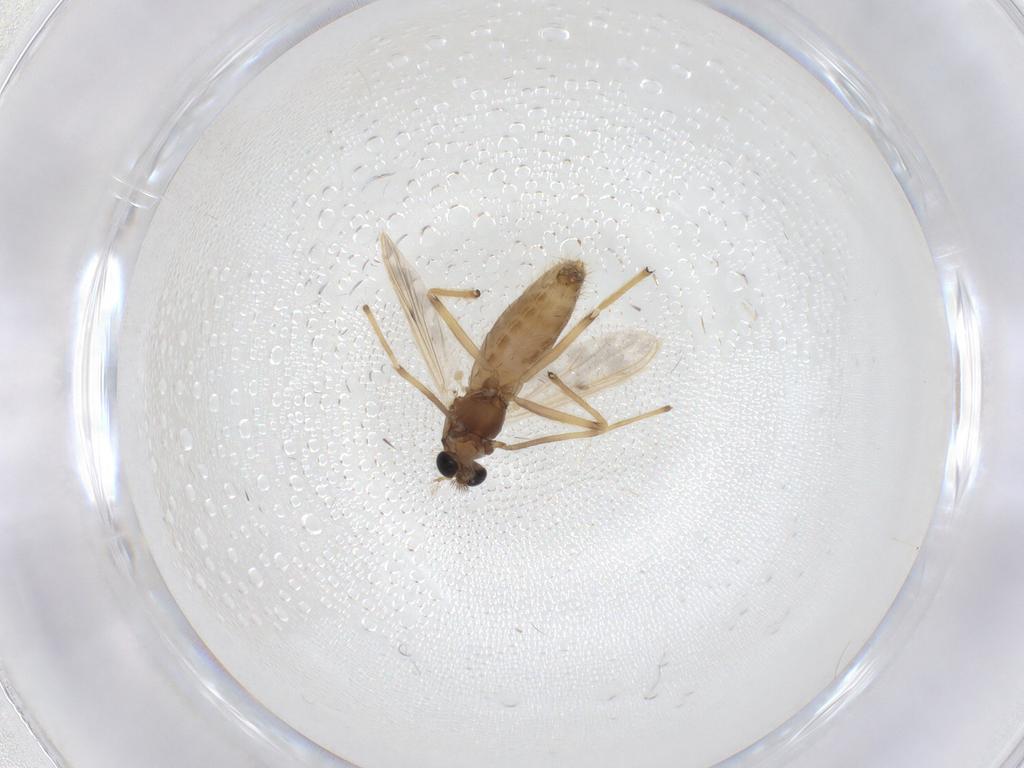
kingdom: Animalia
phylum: Arthropoda
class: Insecta
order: Diptera
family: Chironomidae
